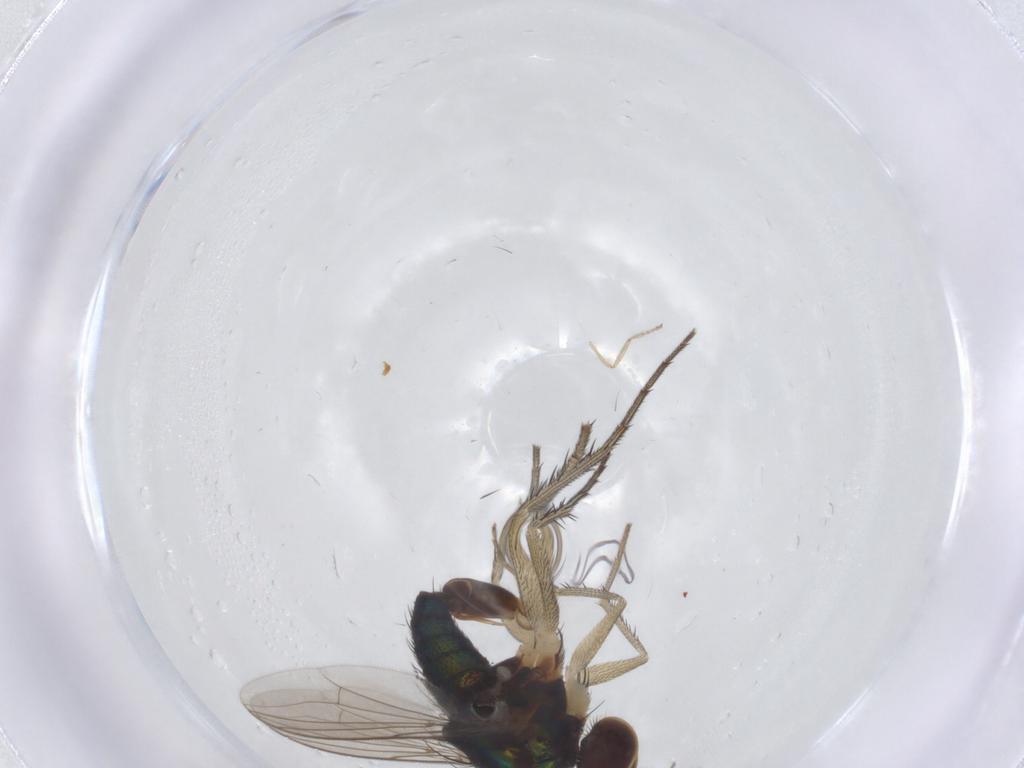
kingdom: Animalia
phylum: Arthropoda
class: Insecta
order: Diptera
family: Dolichopodidae
